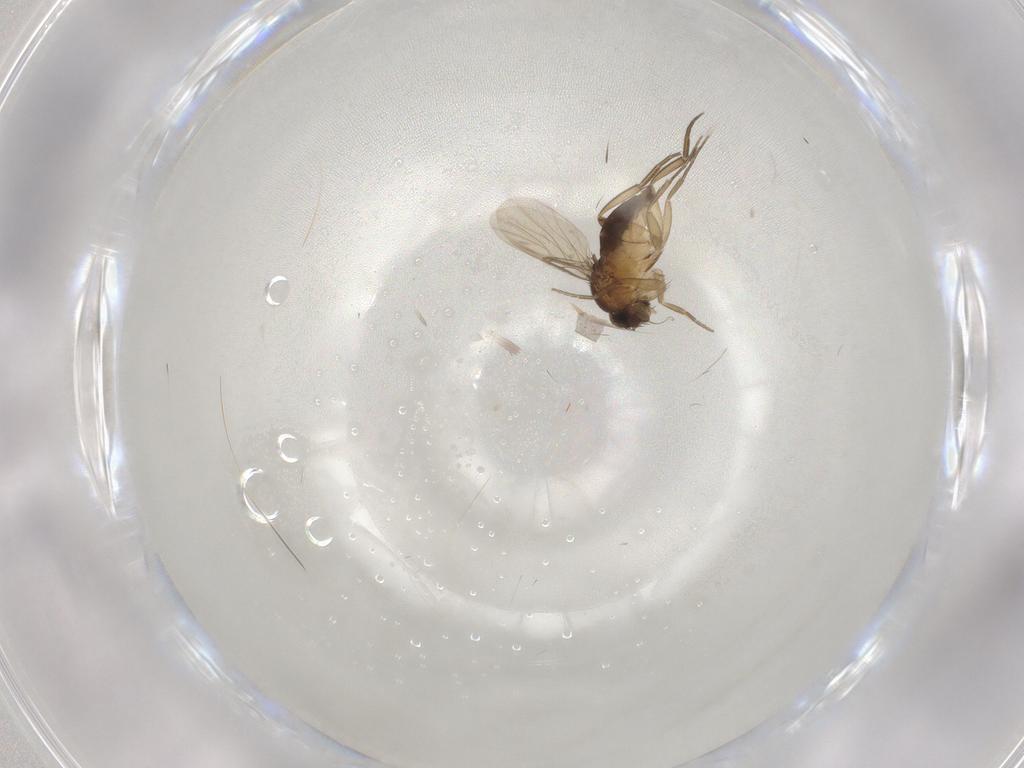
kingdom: Animalia
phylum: Arthropoda
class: Insecta
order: Diptera
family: Phoridae
